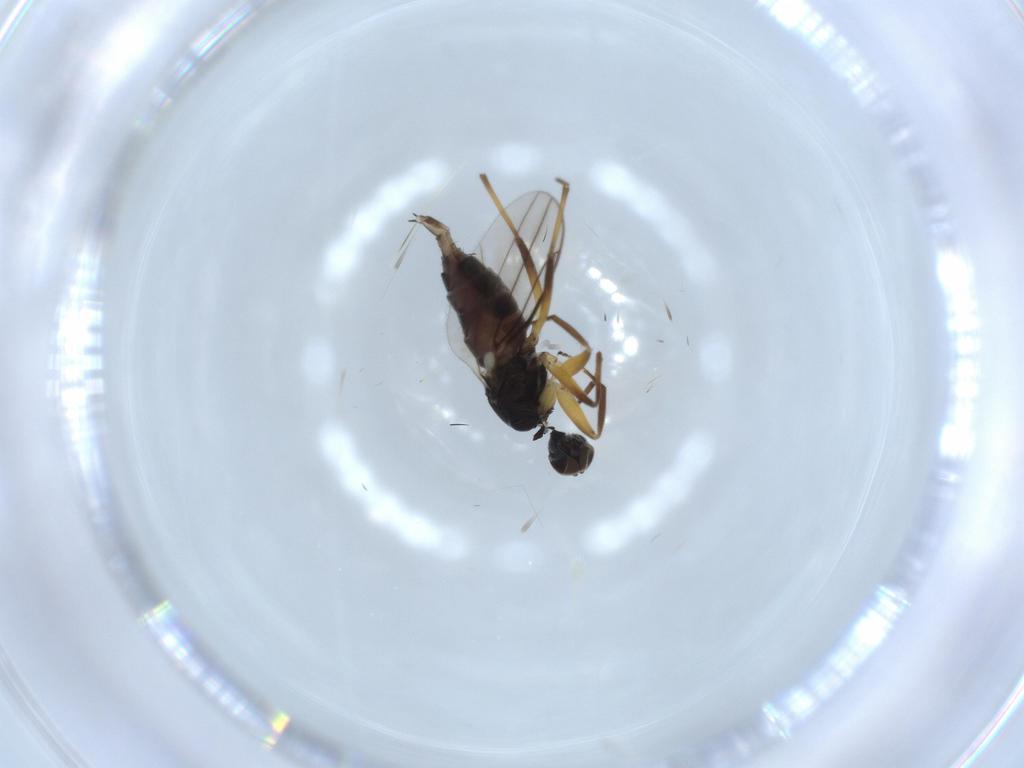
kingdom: Animalia
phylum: Arthropoda
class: Insecta
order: Diptera
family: Hybotidae
